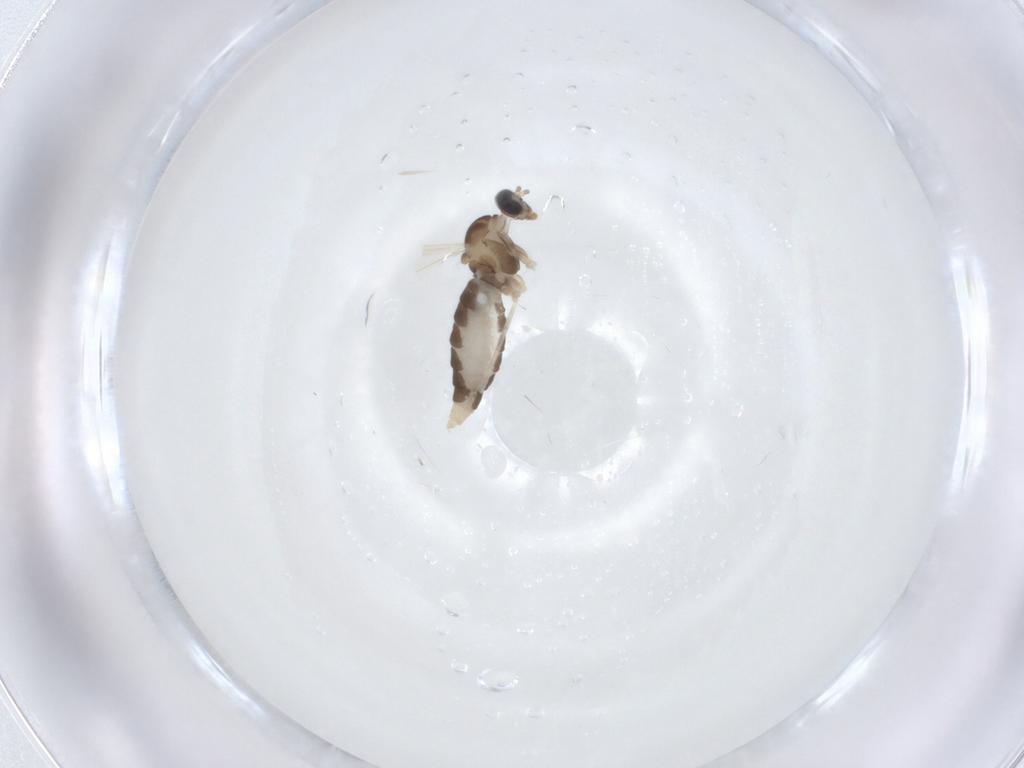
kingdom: Animalia
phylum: Arthropoda
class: Insecta
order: Diptera
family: Cecidomyiidae
